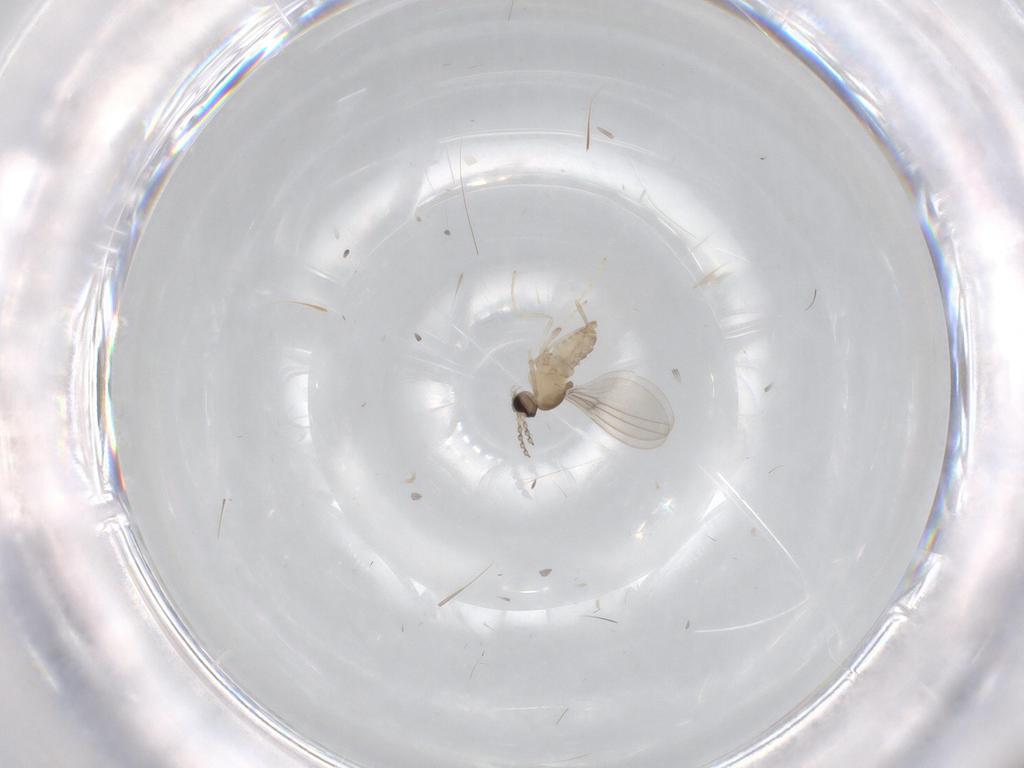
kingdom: Animalia
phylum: Arthropoda
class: Insecta
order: Diptera
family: Cecidomyiidae
